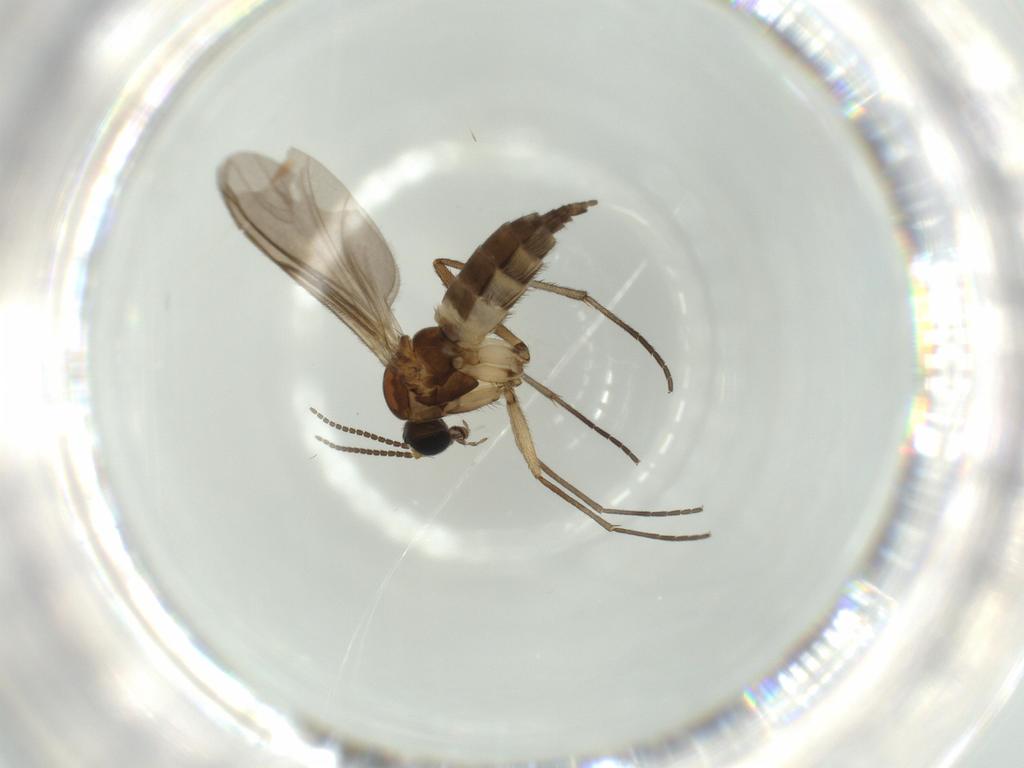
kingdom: Animalia
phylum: Arthropoda
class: Insecta
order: Diptera
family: Sciaridae
